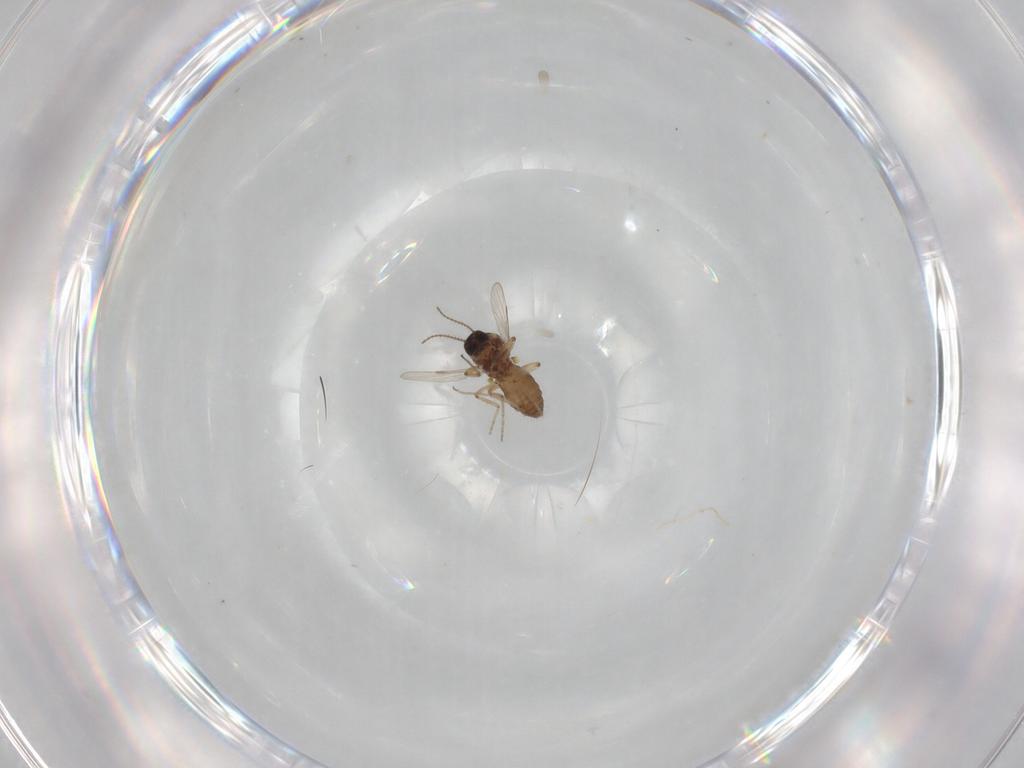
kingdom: Animalia
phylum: Arthropoda
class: Insecta
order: Diptera
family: Ceratopogonidae
